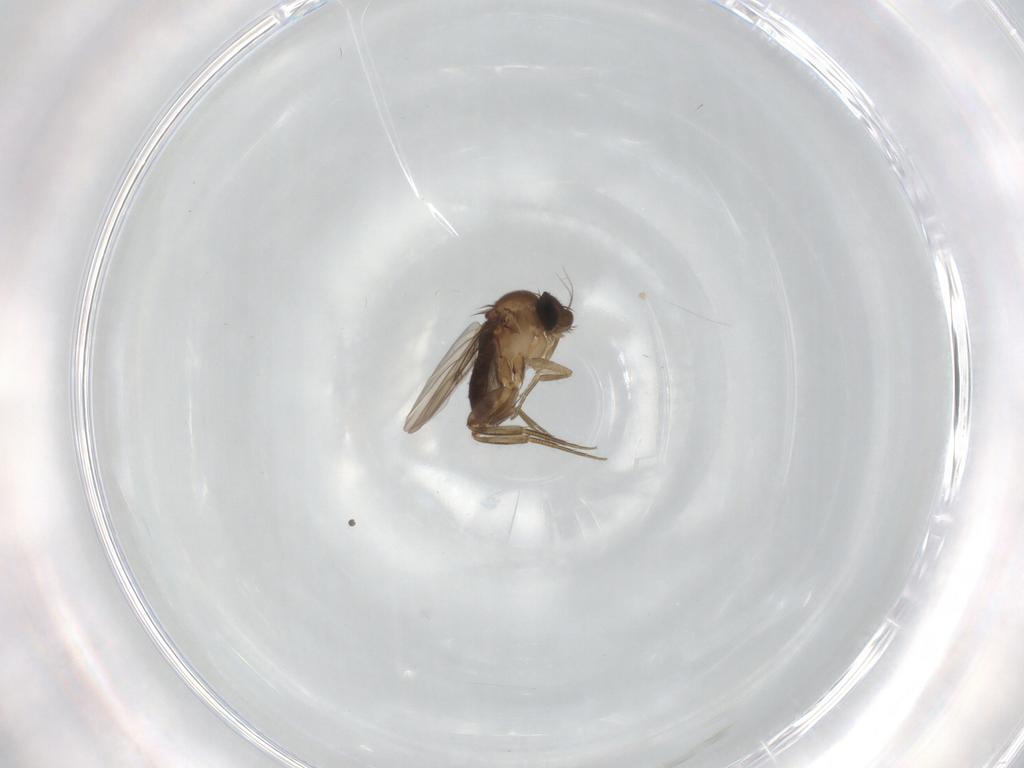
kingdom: Animalia
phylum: Arthropoda
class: Insecta
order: Diptera
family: Phoridae
